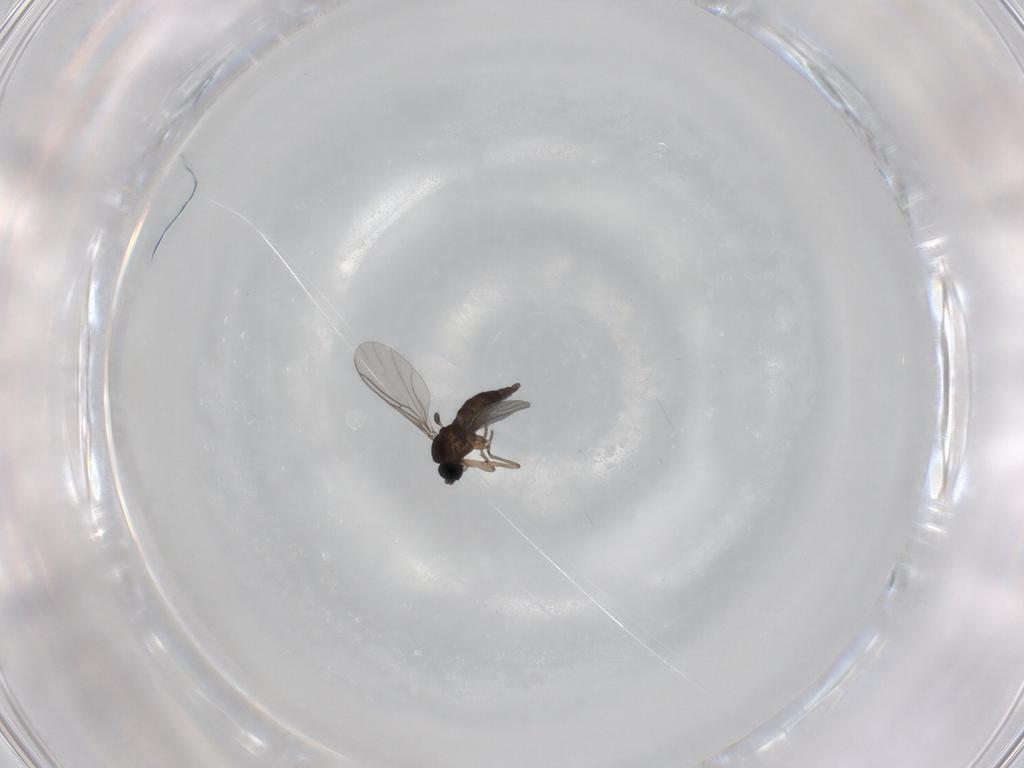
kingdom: Animalia
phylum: Arthropoda
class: Insecta
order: Diptera
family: Sciaridae
